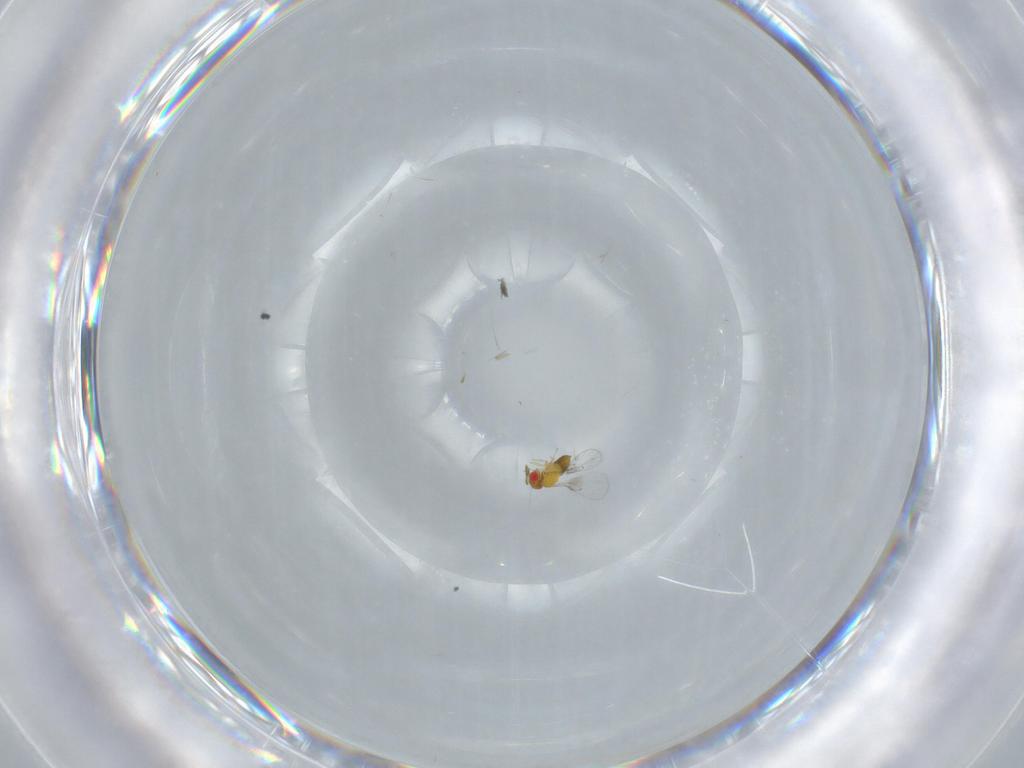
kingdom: Animalia
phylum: Arthropoda
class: Insecta
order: Hymenoptera
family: Trichogrammatidae
